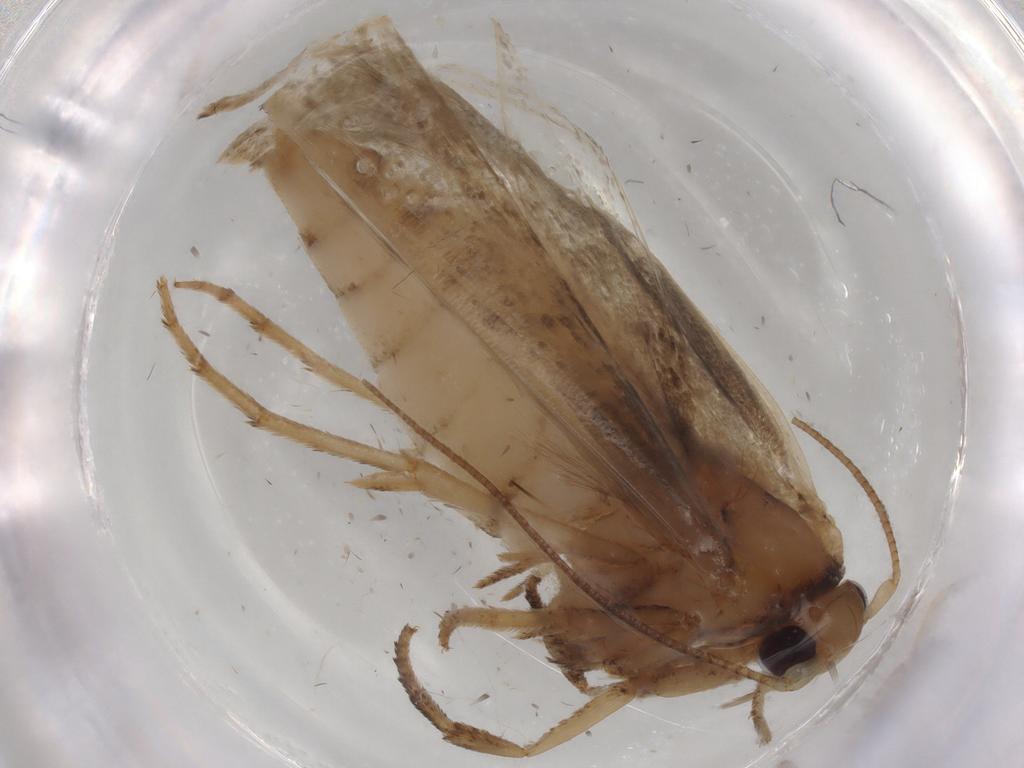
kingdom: Animalia
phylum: Arthropoda
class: Insecta
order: Lepidoptera
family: Yponomeutidae
